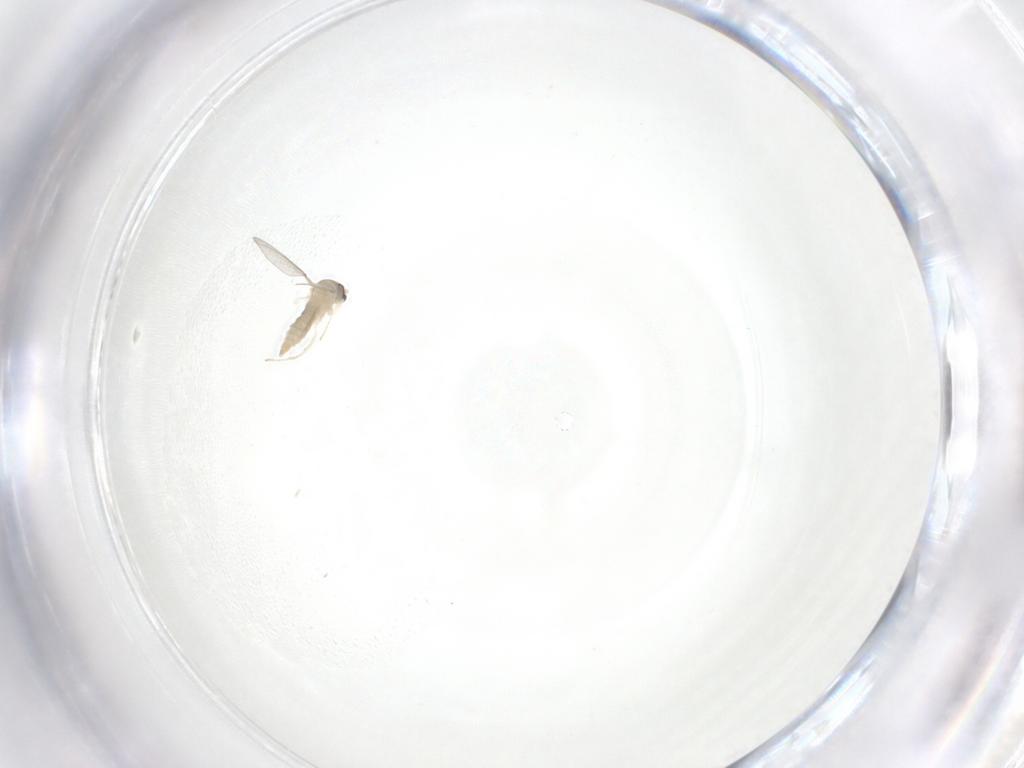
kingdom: Animalia
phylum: Arthropoda
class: Insecta
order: Diptera
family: Cecidomyiidae
